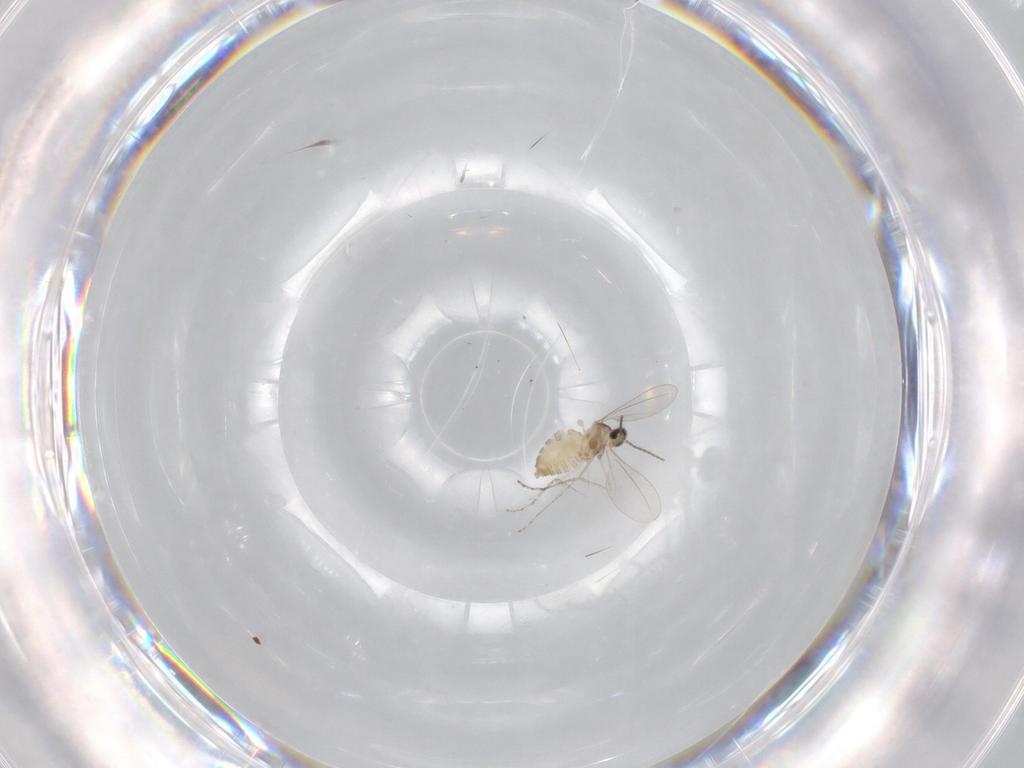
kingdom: Animalia
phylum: Arthropoda
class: Insecta
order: Diptera
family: Cecidomyiidae
